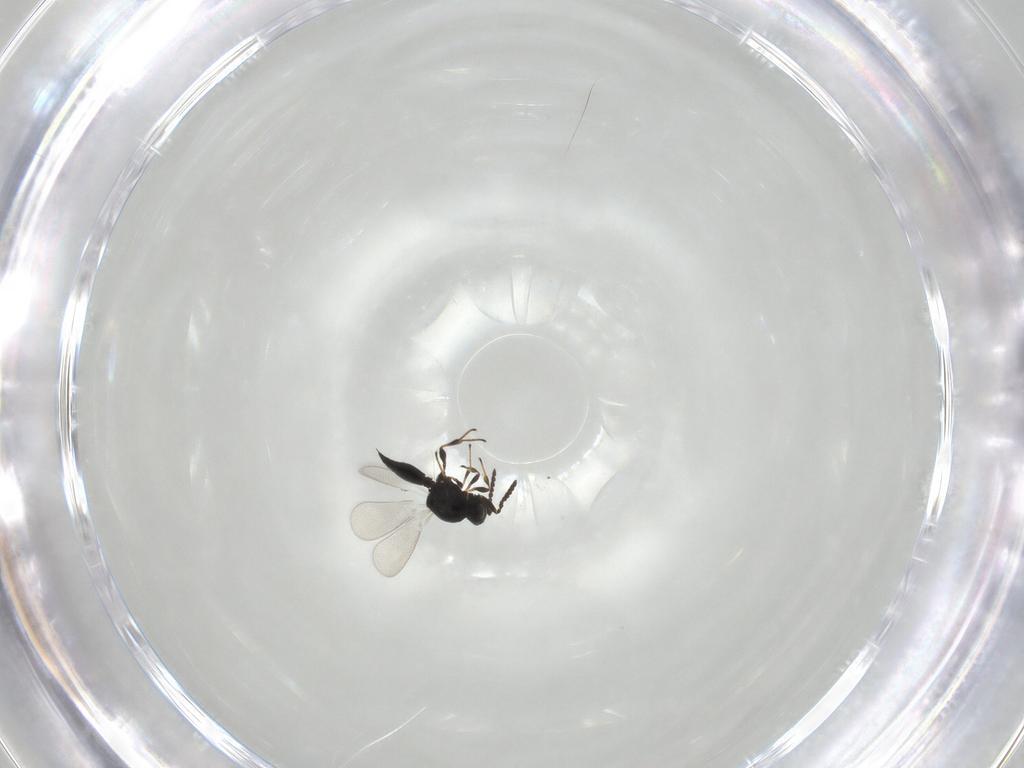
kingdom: Animalia
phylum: Arthropoda
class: Insecta
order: Hymenoptera
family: Platygastridae
